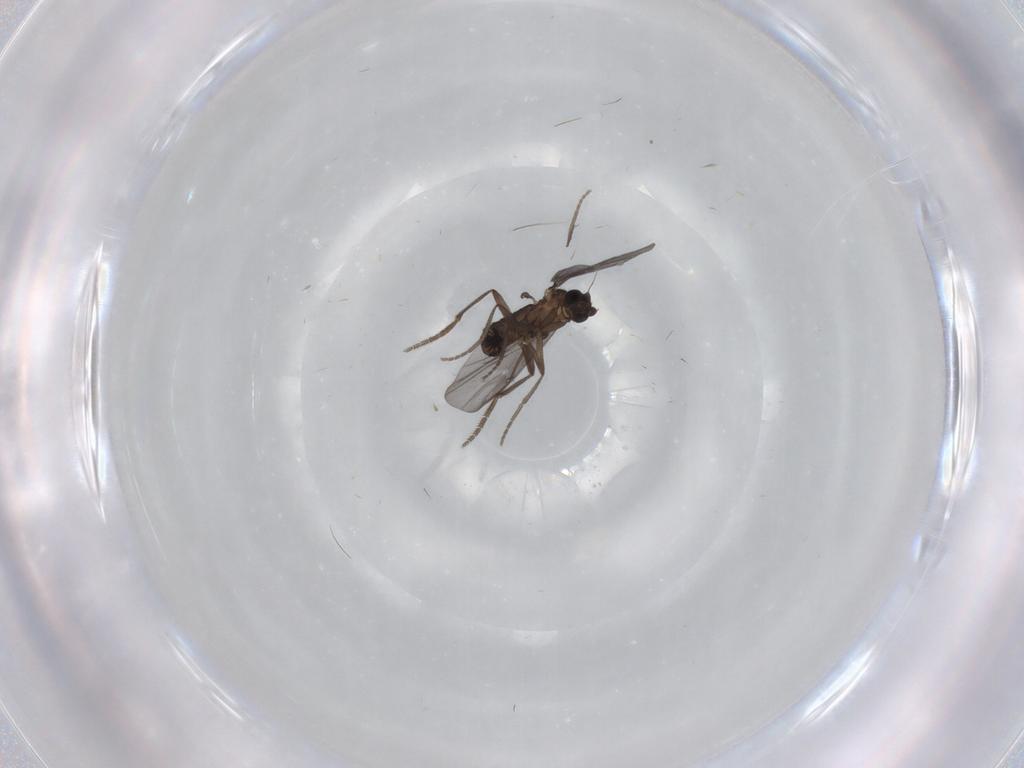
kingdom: Animalia
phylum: Arthropoda
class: Insecta
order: Diptera
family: Phoridae
